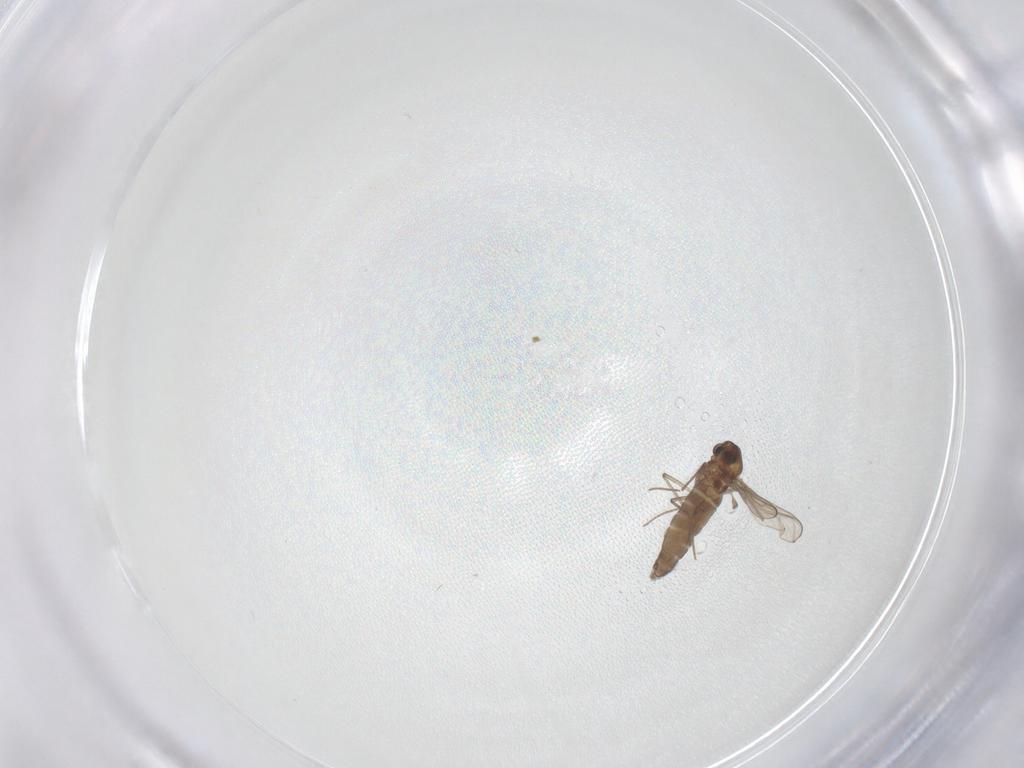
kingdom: Animalia
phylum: Arthropoda
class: Insecta
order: Diptera
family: Chironomidae
